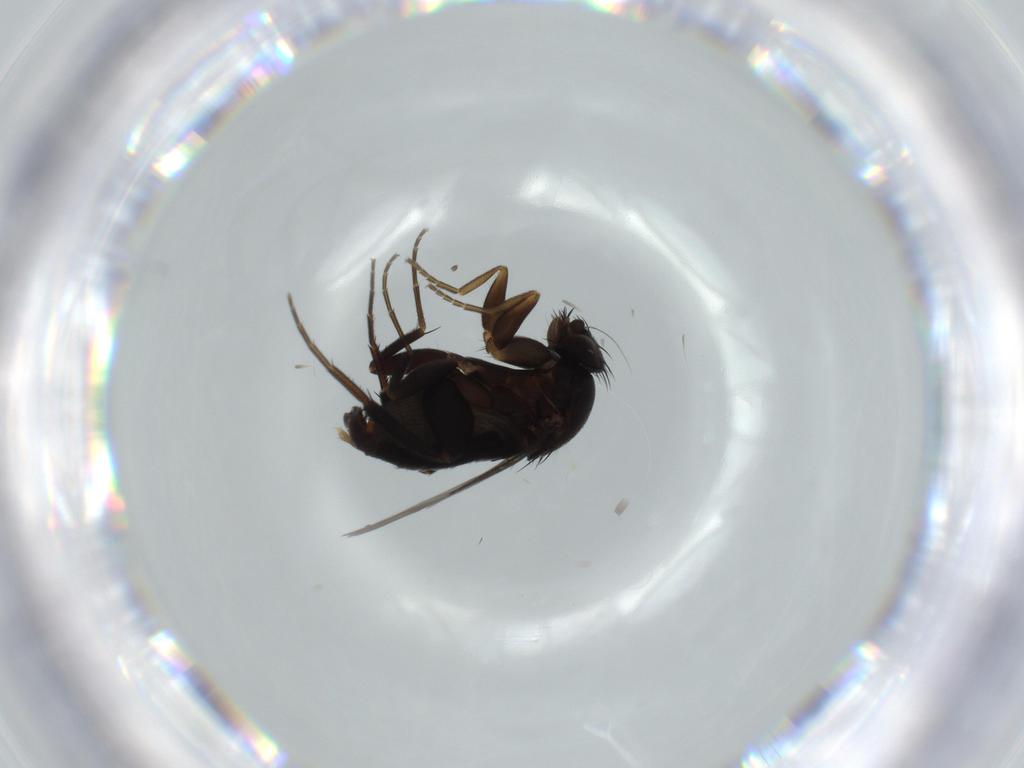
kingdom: Animalia
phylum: Arthropoda
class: Insecta
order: Diptera
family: Phoridae
